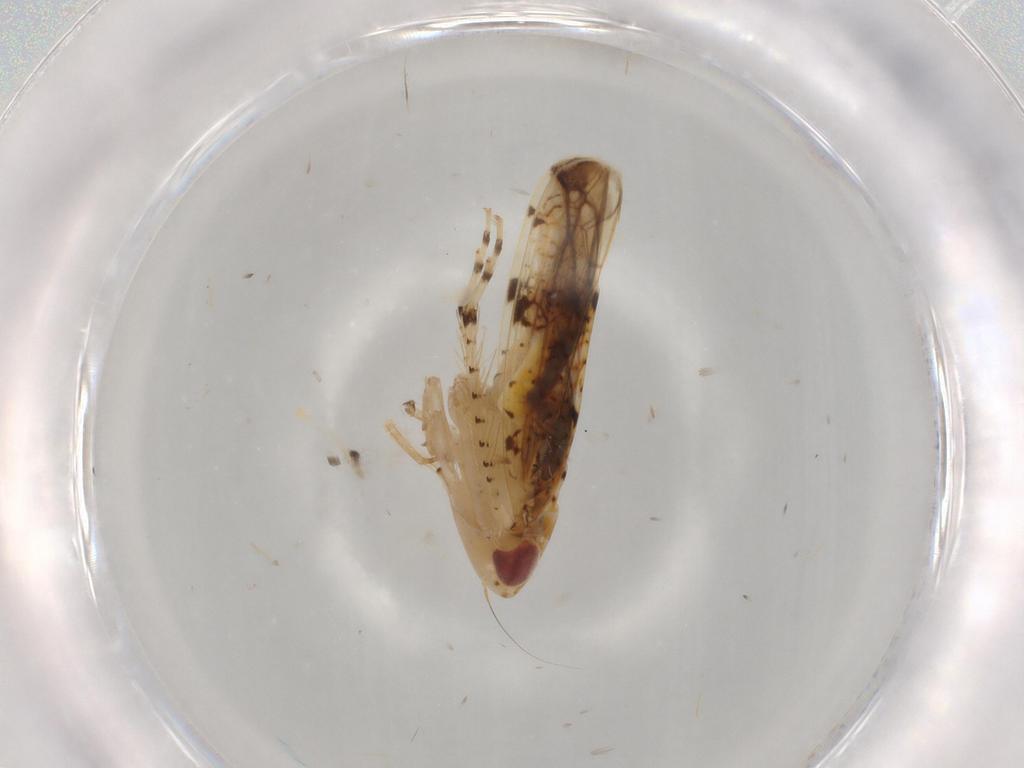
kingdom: Animalia
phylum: Arthropoda
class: Insecta
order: Hemiptera
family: Cicadellidae
